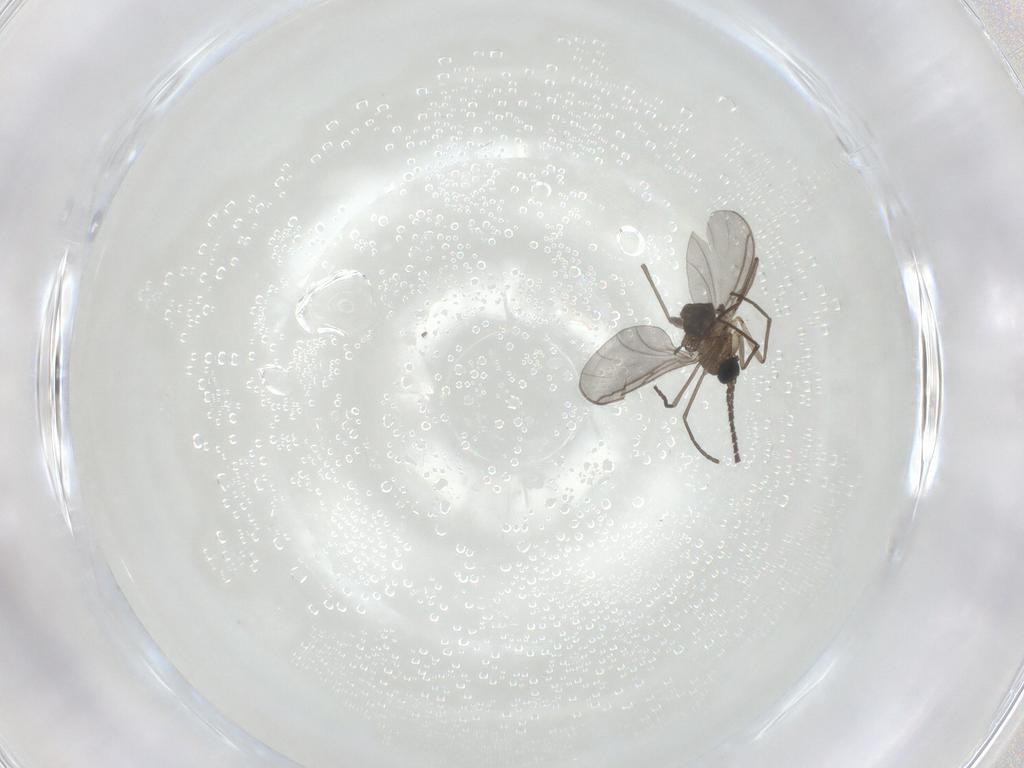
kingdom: Animalia
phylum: Arthropoda
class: Insecta
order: Diptera
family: Sciaridae
